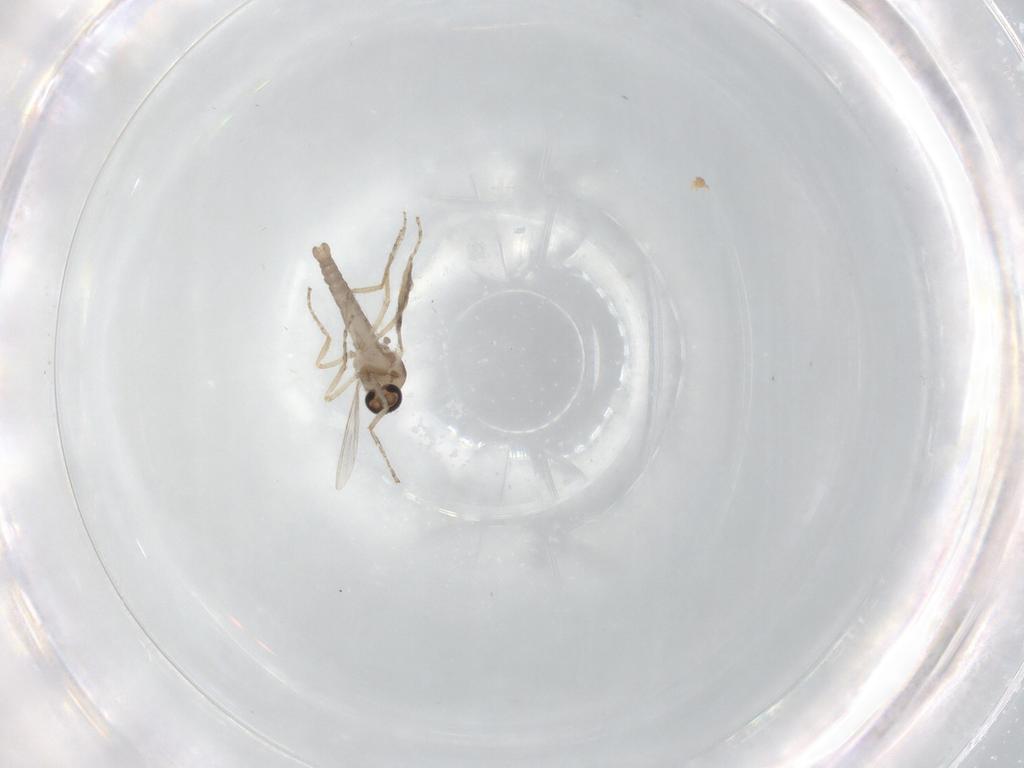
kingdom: Animalia
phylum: Arthropoda
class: Insecta
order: Diptera
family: Ceratopogonidae
